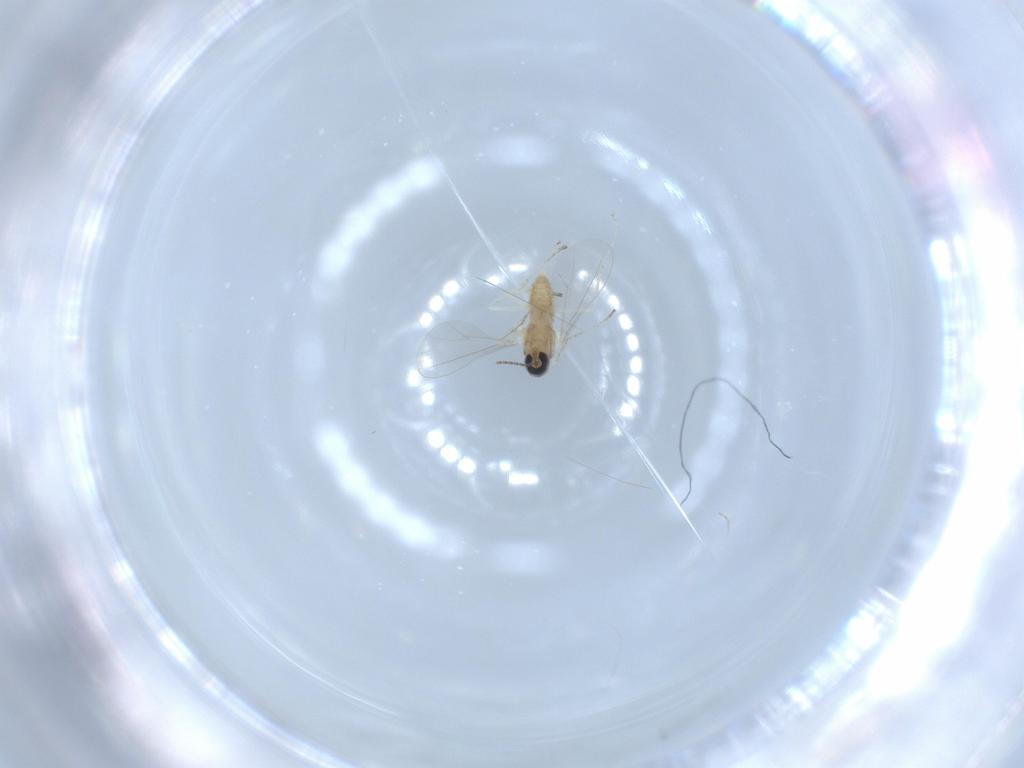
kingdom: Animalia
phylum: Arthropoda
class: Insecta
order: Diptera
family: Cecidomyiidae
